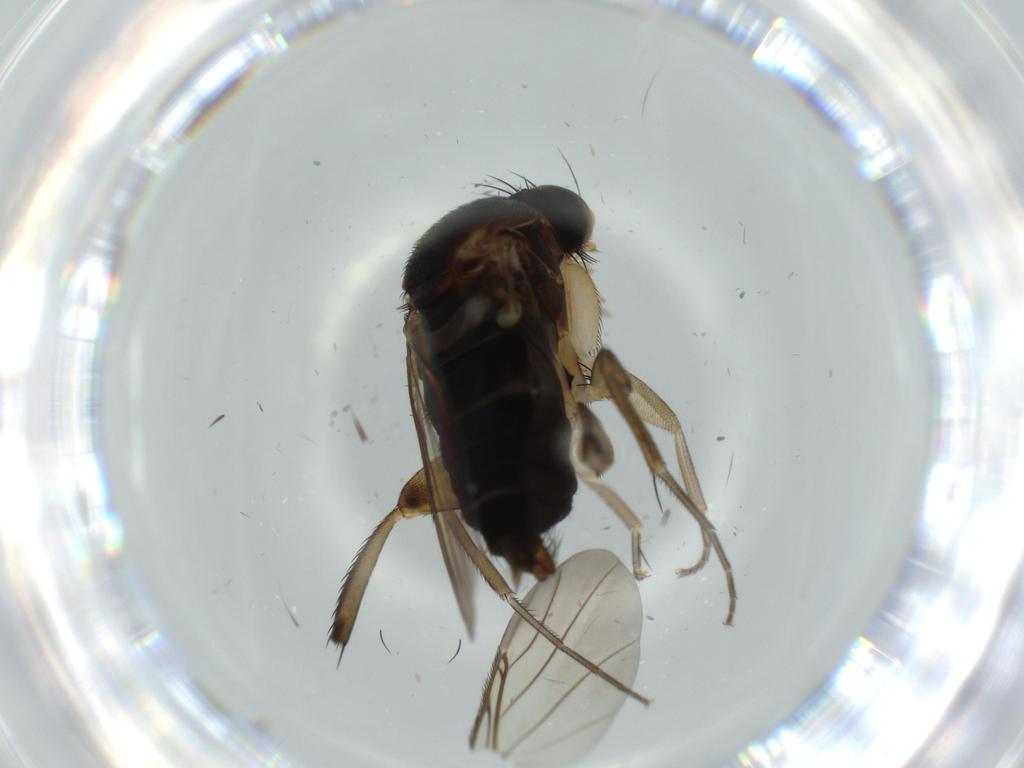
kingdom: Animalia
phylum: Arthropoda
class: Insecta
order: Diptera
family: Phoridae
